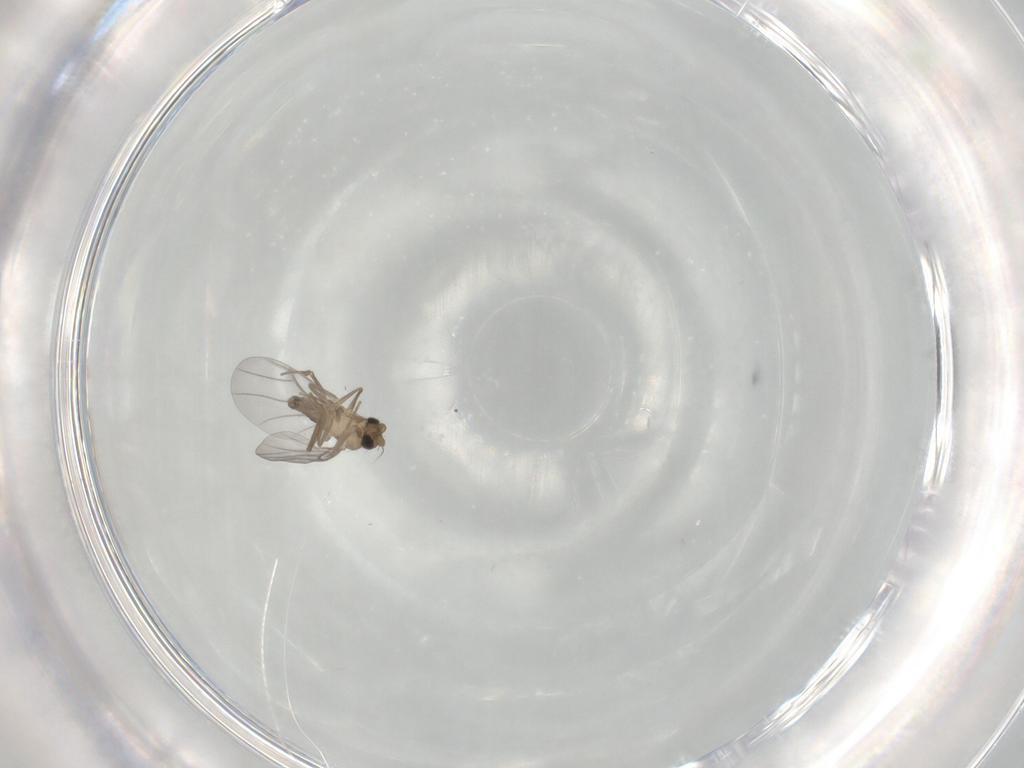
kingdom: Animalia
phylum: Arthropoda
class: Insecta
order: Diptera
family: Sciaridae
